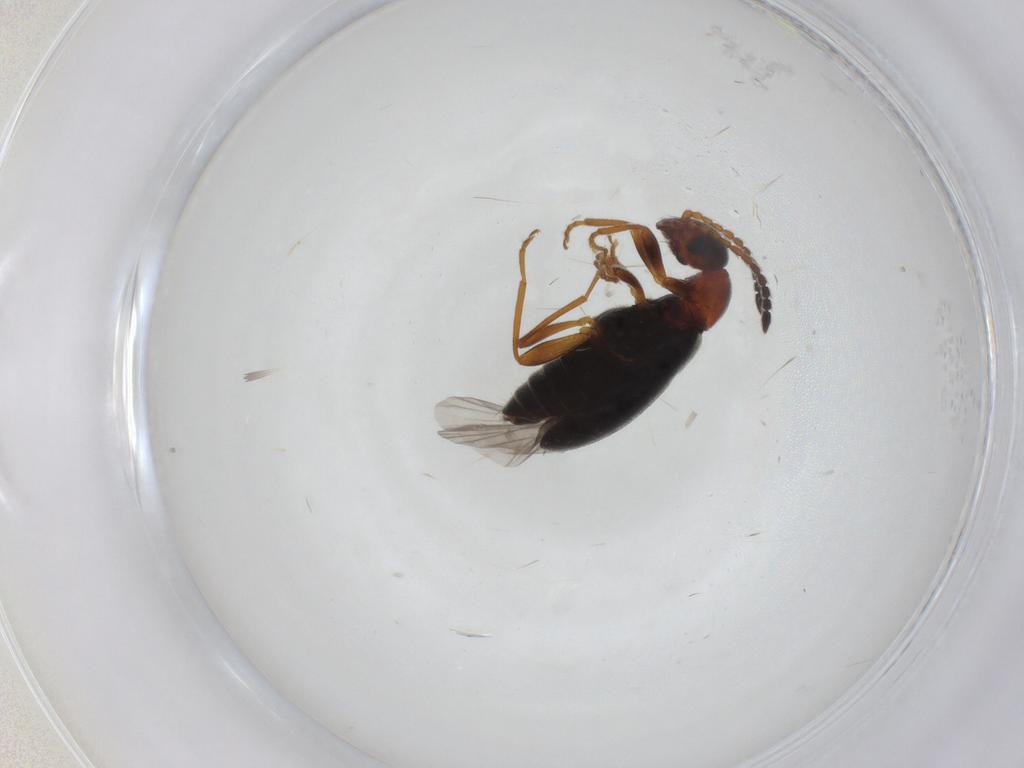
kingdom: Animalia
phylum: Arthropoda
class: Insecta
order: Coleoptera
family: Anthicidae
